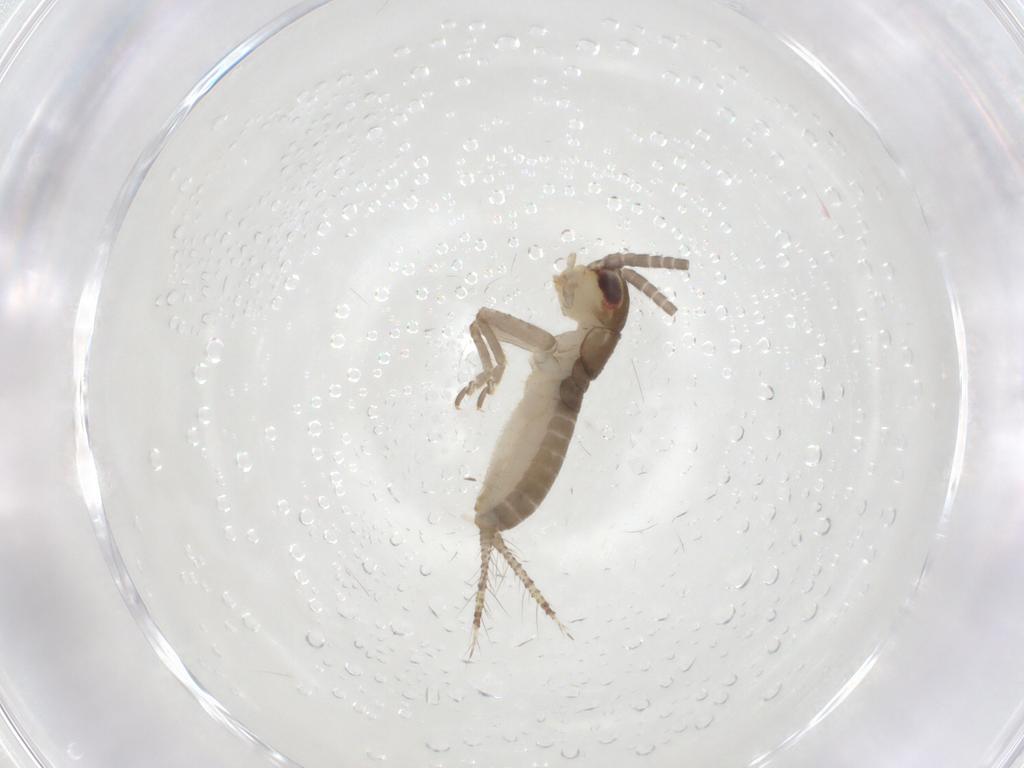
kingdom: Animalia
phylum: Arthropoda
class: Insecta
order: Orthoptera
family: Gryllidae
